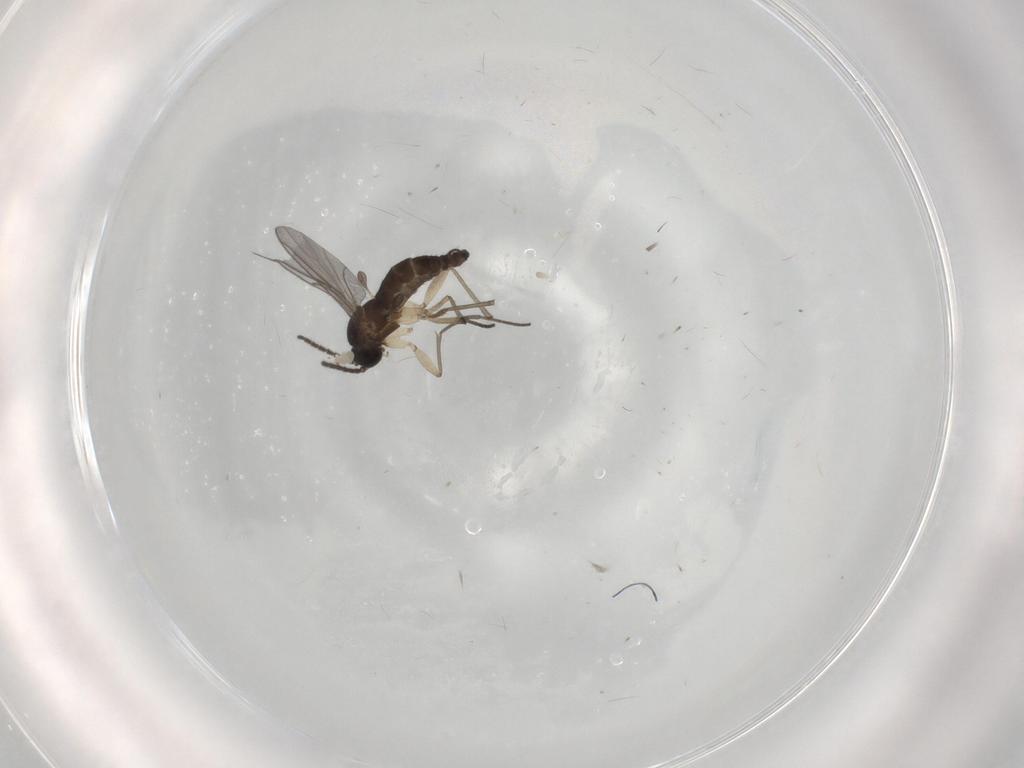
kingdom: Animalia
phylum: Arthropoda
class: Insecta
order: Diptera
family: Sciaridae
